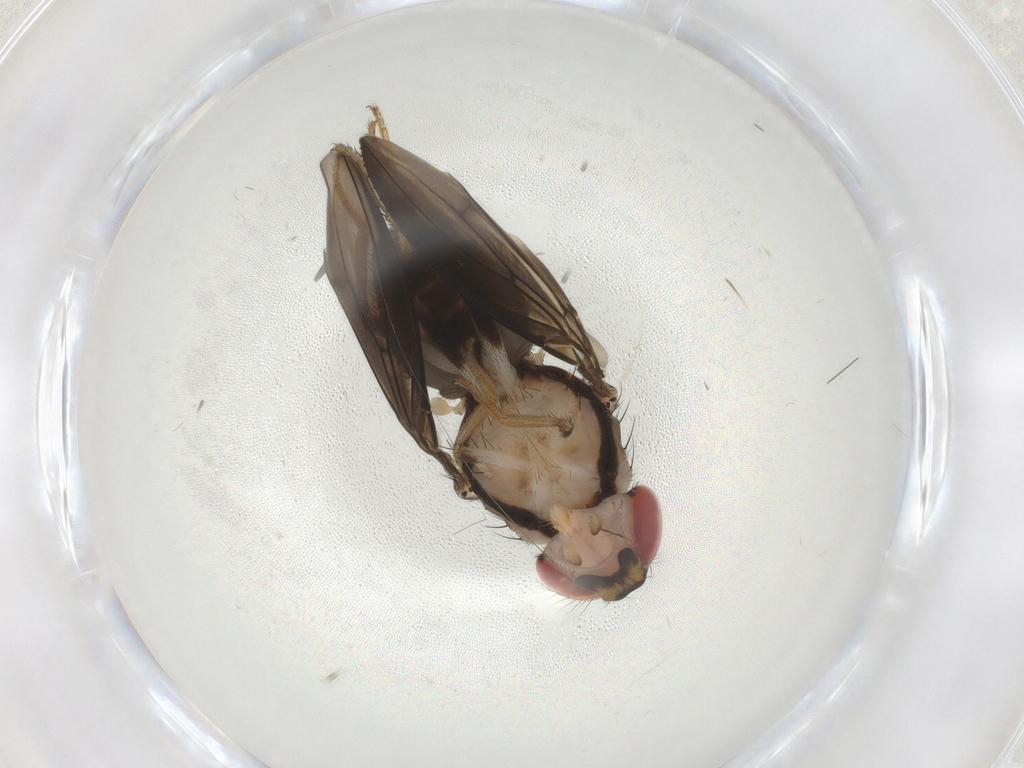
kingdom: Animalia
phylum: Arthropoda
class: Insecta
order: Diptera
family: Drosophilidae
